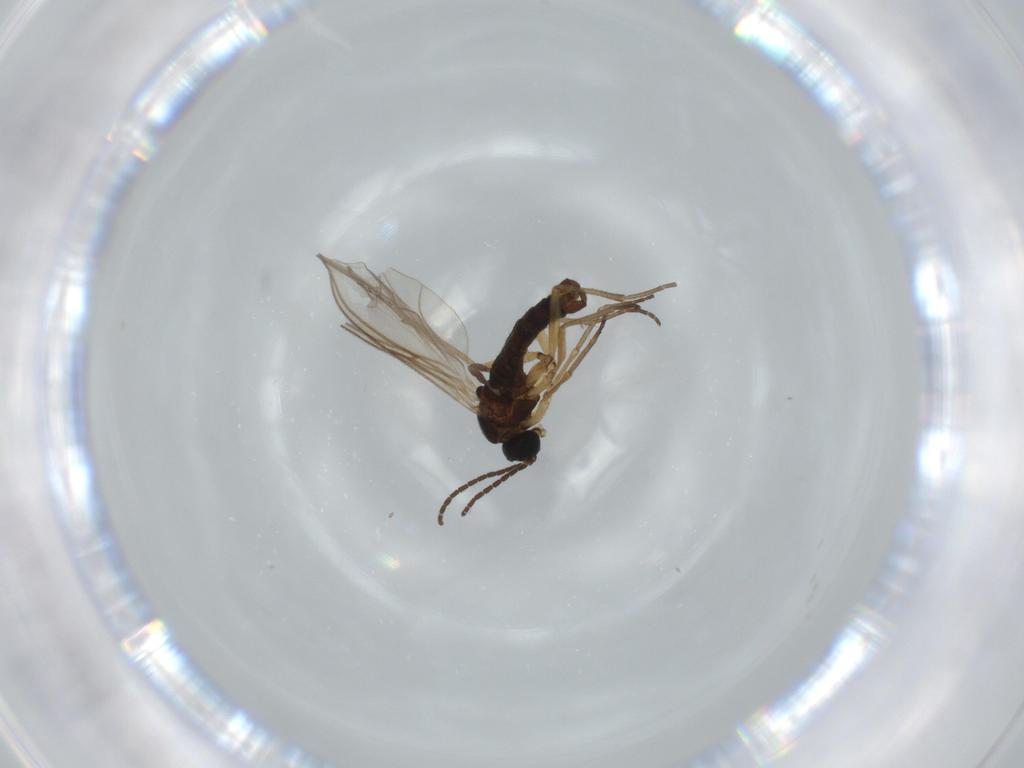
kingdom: Animalia
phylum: Arthropoda
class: Insecta
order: Diptera
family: Sciaridae
